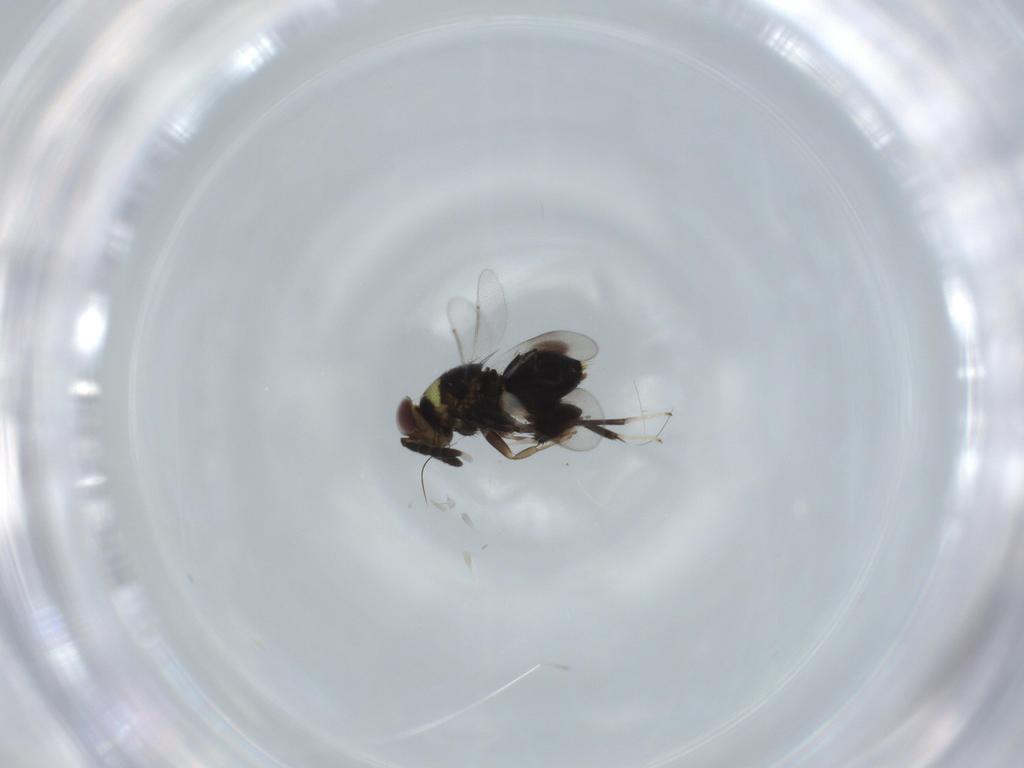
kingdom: Animalia
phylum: Arthropoda
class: Insecta
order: Hymenoptera
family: Aphelinidae
